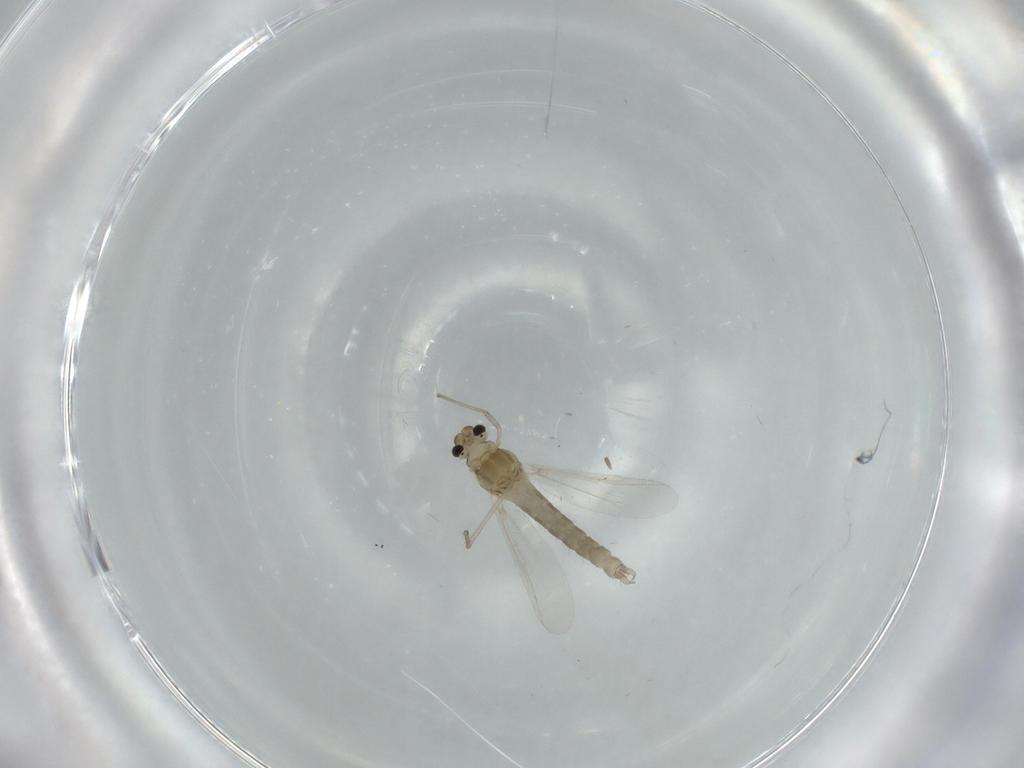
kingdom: Animalia
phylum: Arthropoda
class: Insecta
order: Diptera
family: Chironomidae
